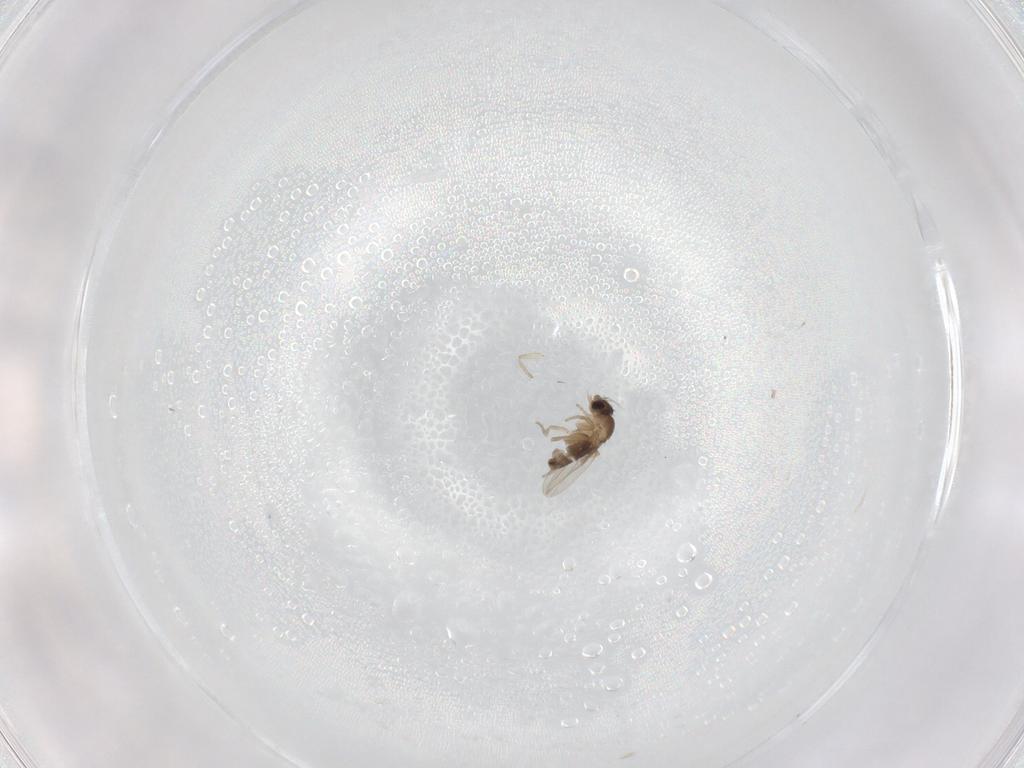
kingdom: Animalia
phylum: Arthropoda
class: Insecta
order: Diptera
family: Phoridae
